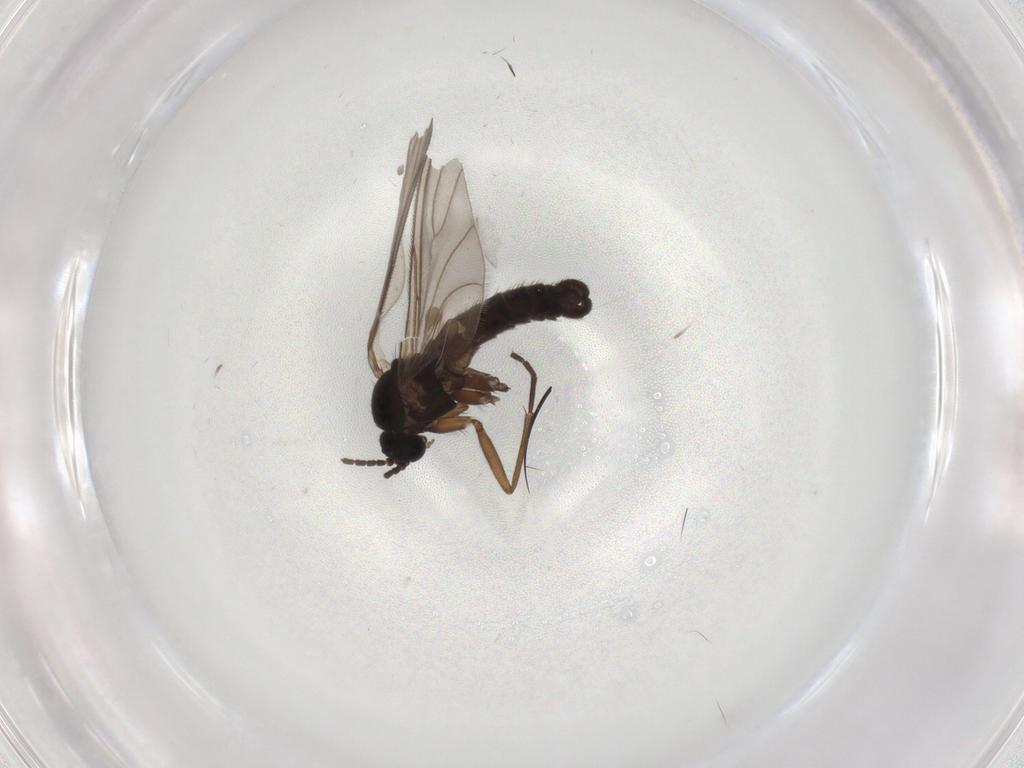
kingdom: Animalia
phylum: Arthropoda
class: Insecta
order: Diptera
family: Sciaridae
